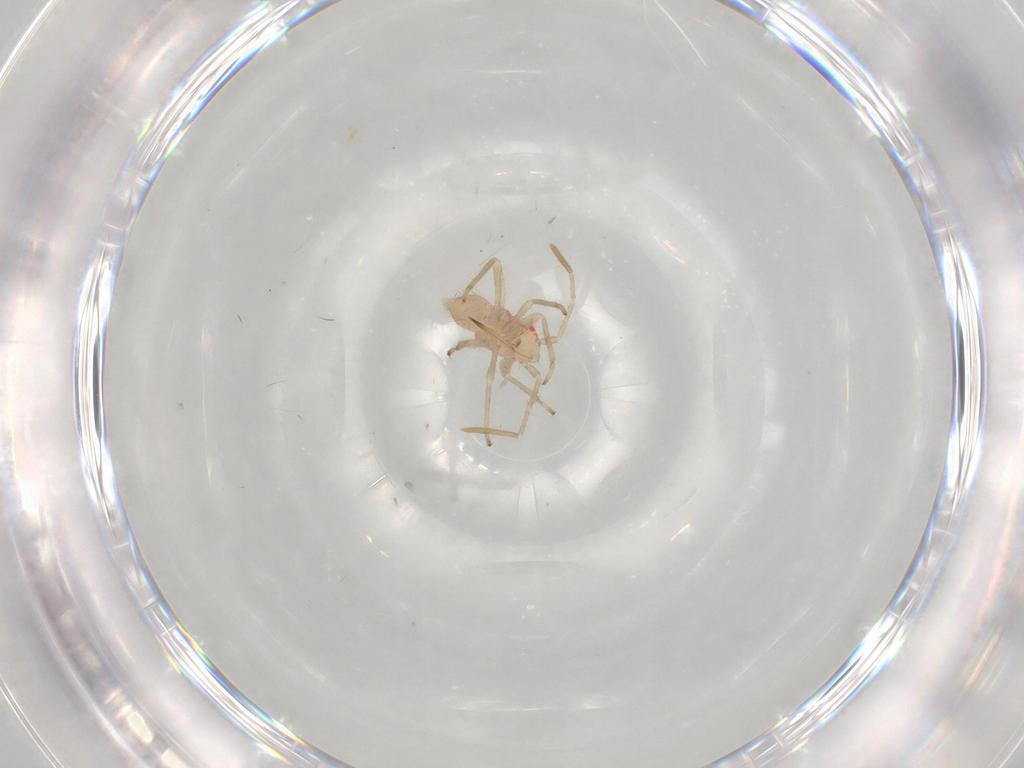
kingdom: Animalia
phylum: Arthropoda
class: Insecta
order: Hemiptera
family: Miridae
